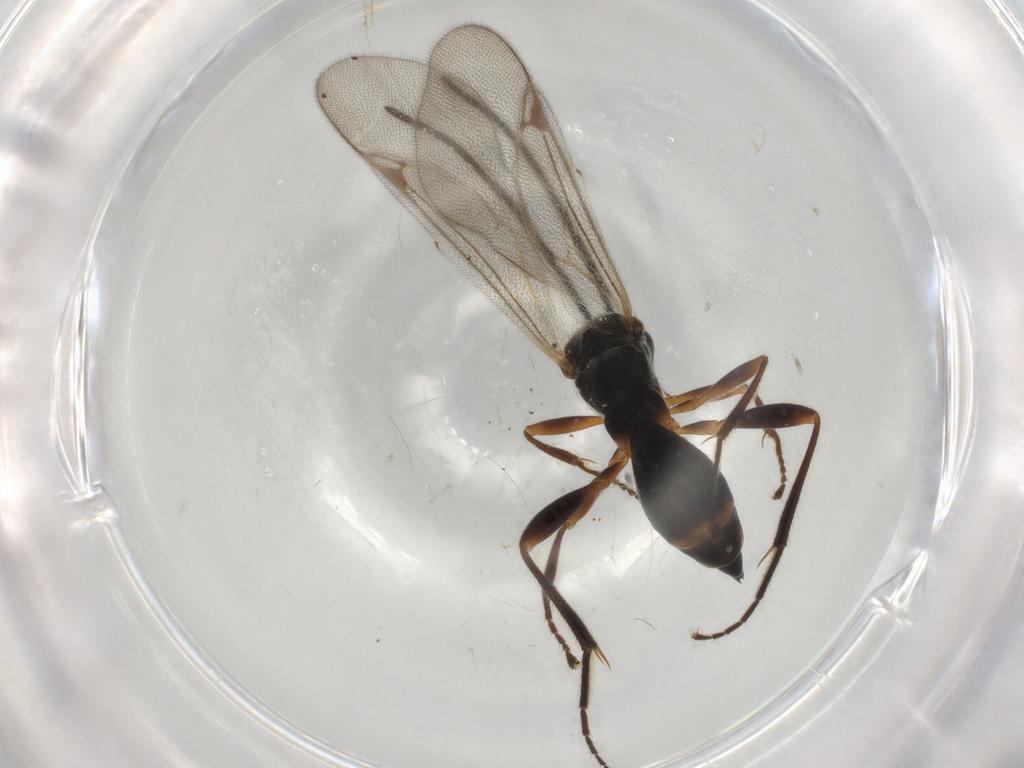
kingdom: Animalia
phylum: Arthropoda
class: Insecta
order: Hymenoptera
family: Proctotrupidae
